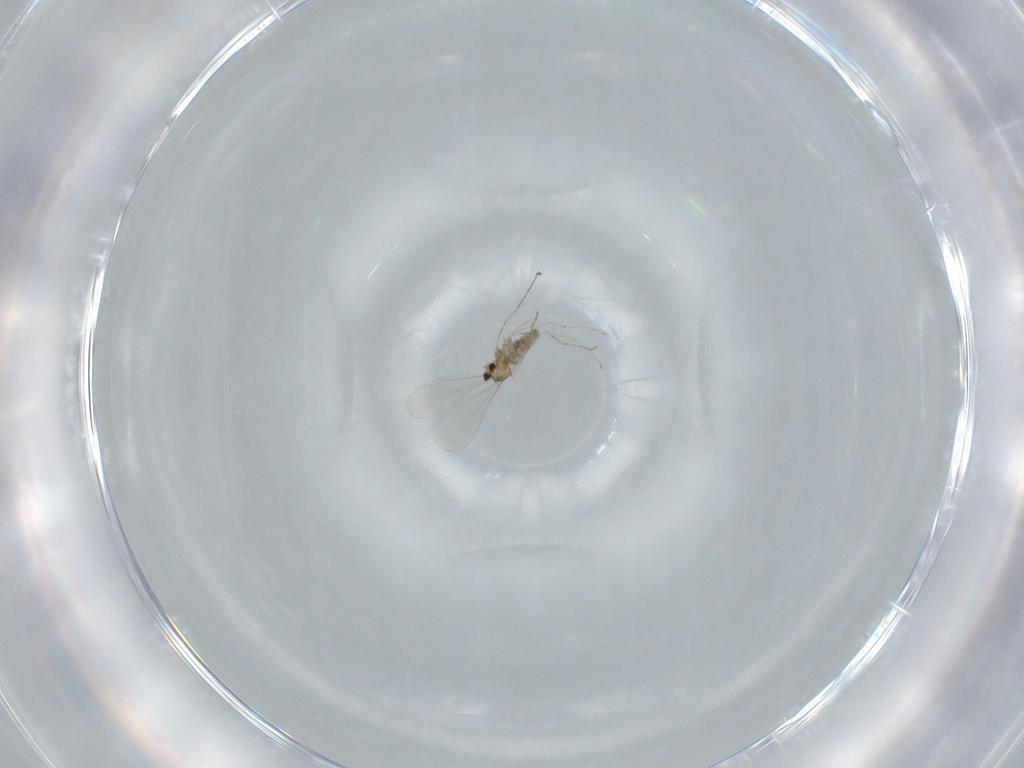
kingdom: Animalia
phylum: Arthropoda
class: Insecta
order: Diptera
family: Cecidomyiidae
